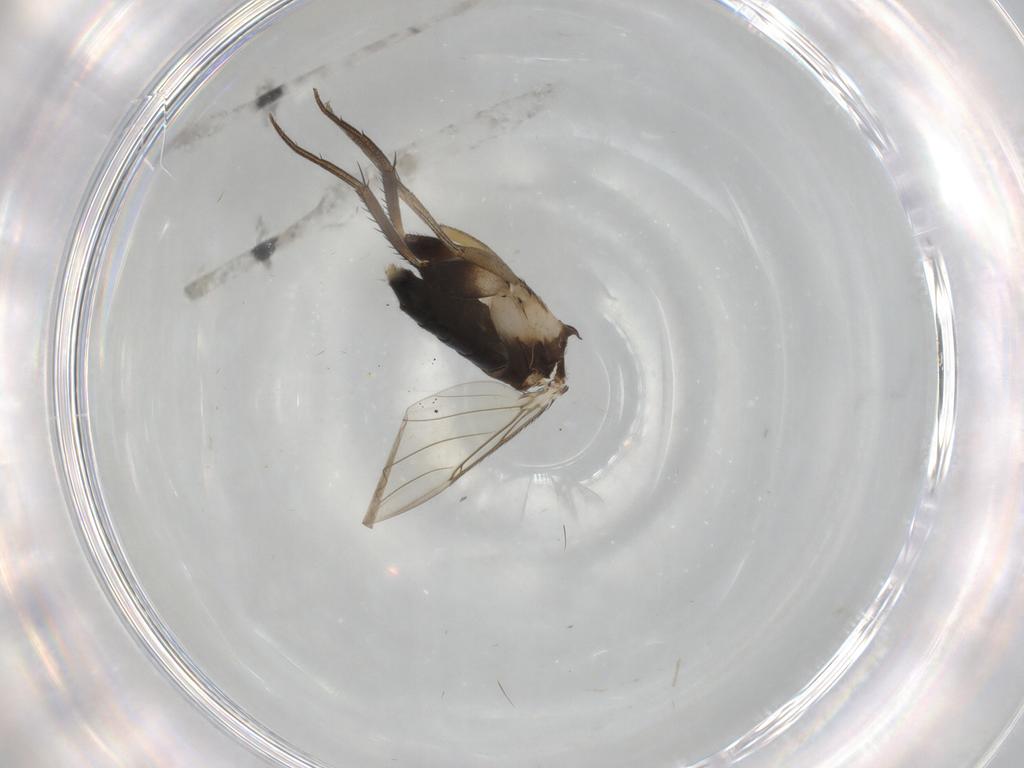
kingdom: Animalia
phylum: Arthropoda
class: Insecta
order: Diptera
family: Phoridae
